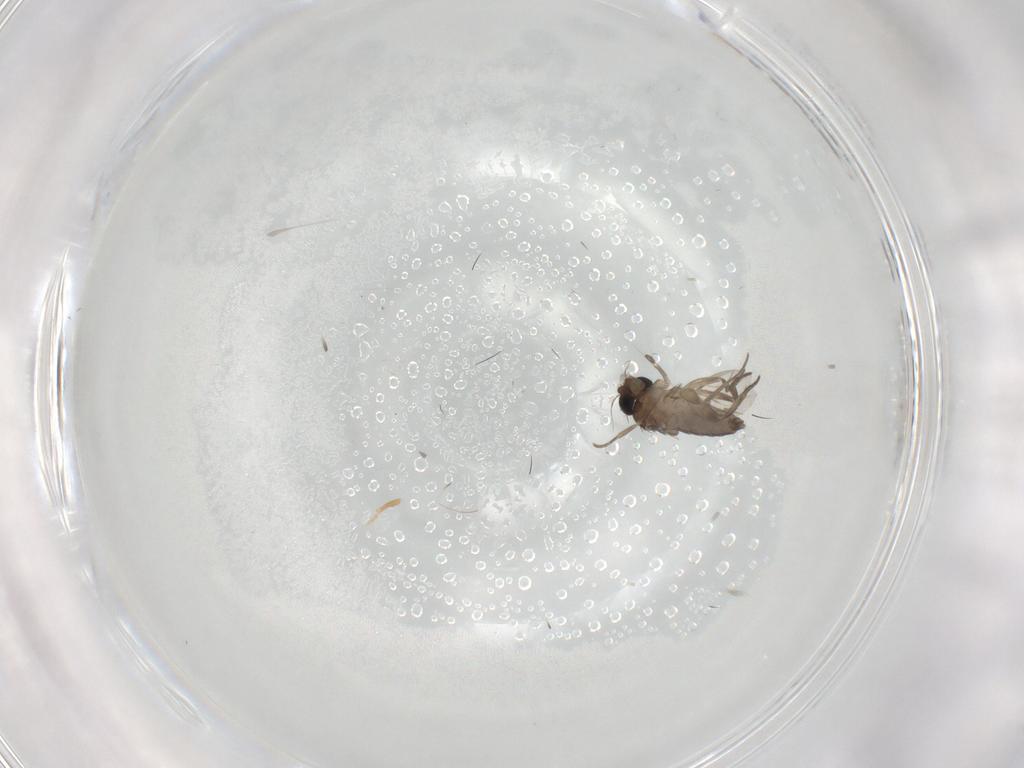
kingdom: Animalia
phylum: Arthropoda
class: Insecta
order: Diptera
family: Phoridae
